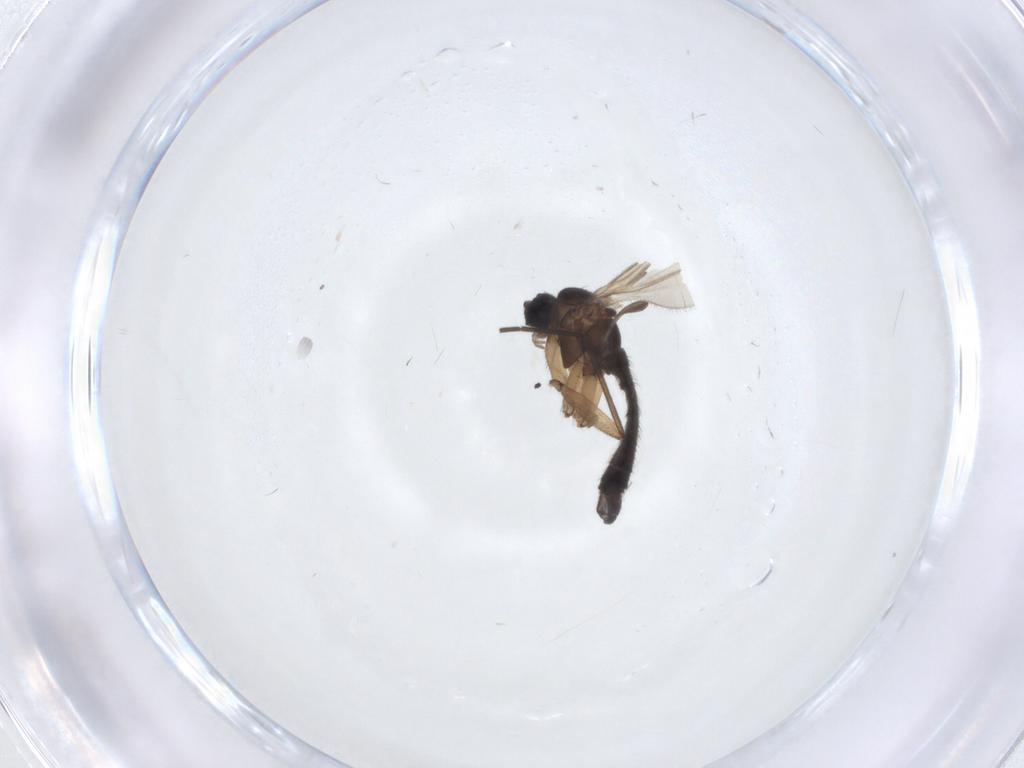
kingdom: Animalia
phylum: Arthropoda
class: Insecta
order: Diptera
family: Sciaridae
